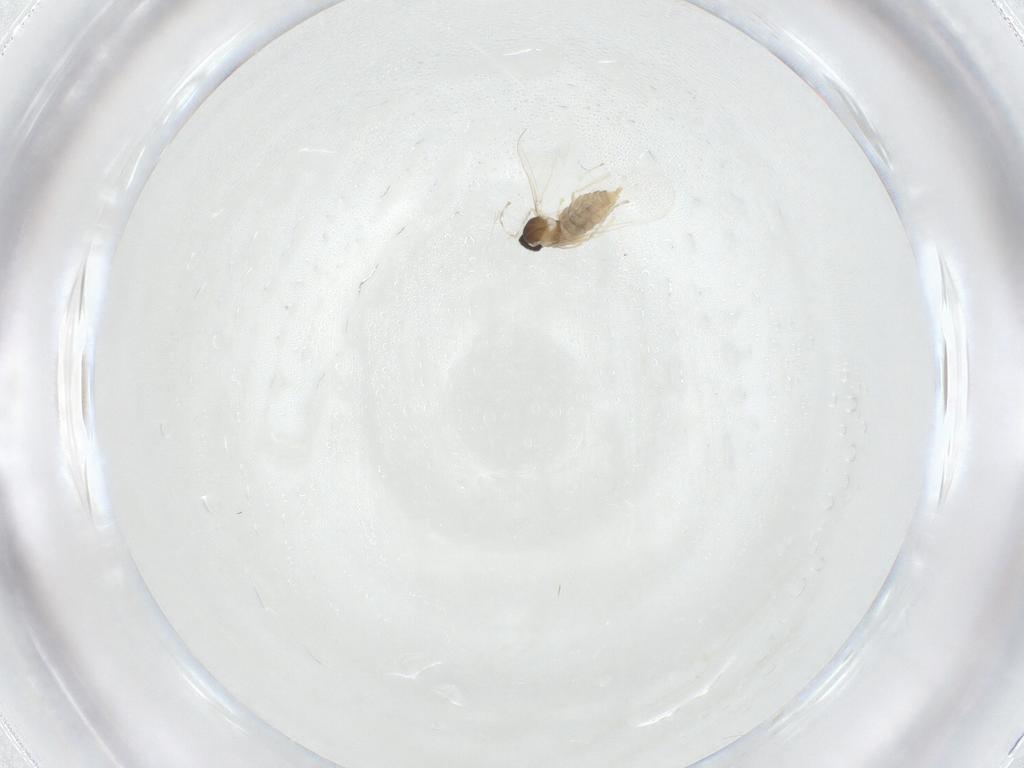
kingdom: Animalia
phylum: Arthropoda
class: Insecta
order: Diptera
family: Cecidomyiidae
